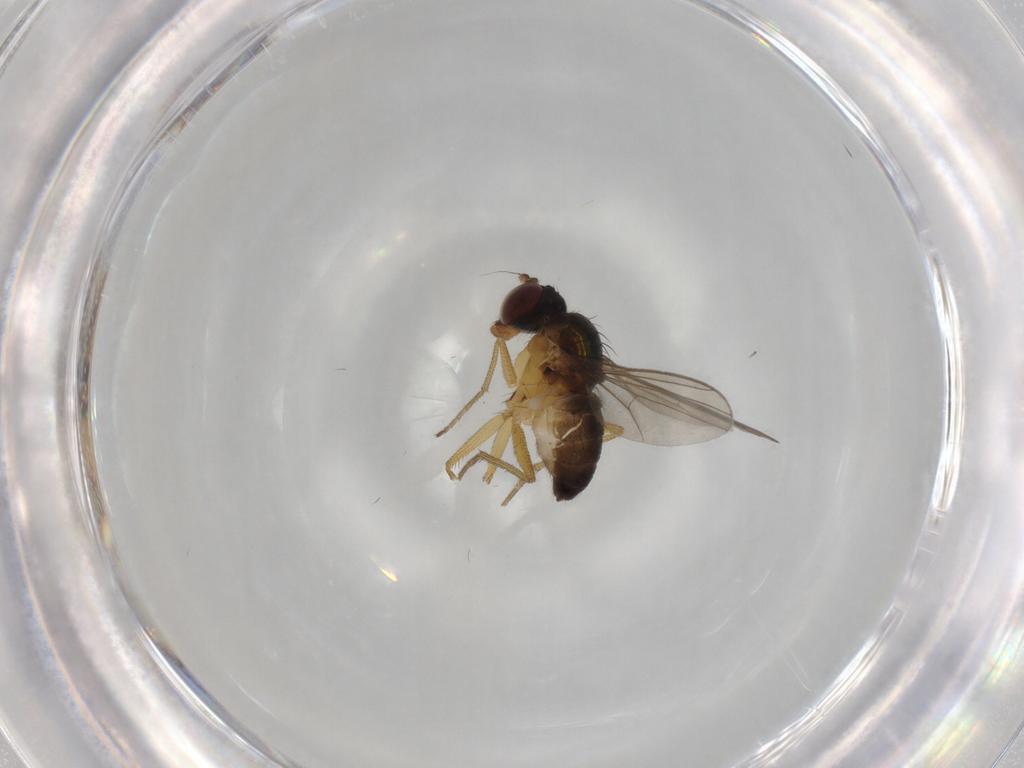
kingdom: Animalia
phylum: Arthropoda
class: Insecta
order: Diptera
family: Dolichopodidae
